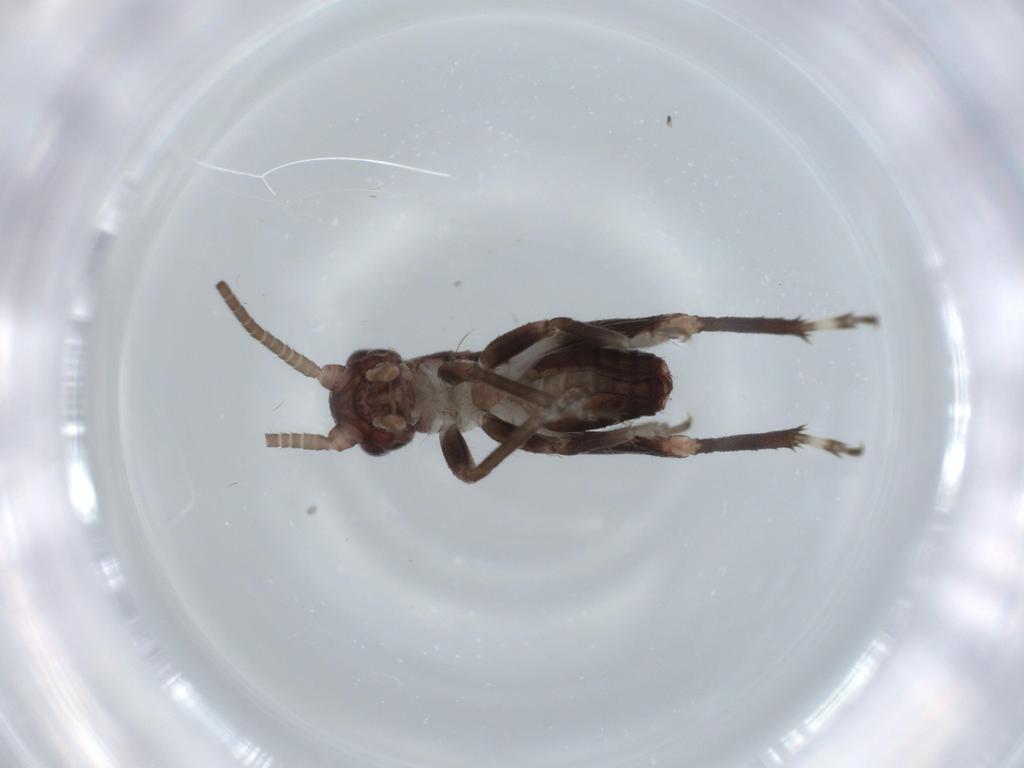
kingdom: Animalia
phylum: Arthropoda
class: Insecta
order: Orthoptera
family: Gryllidae
